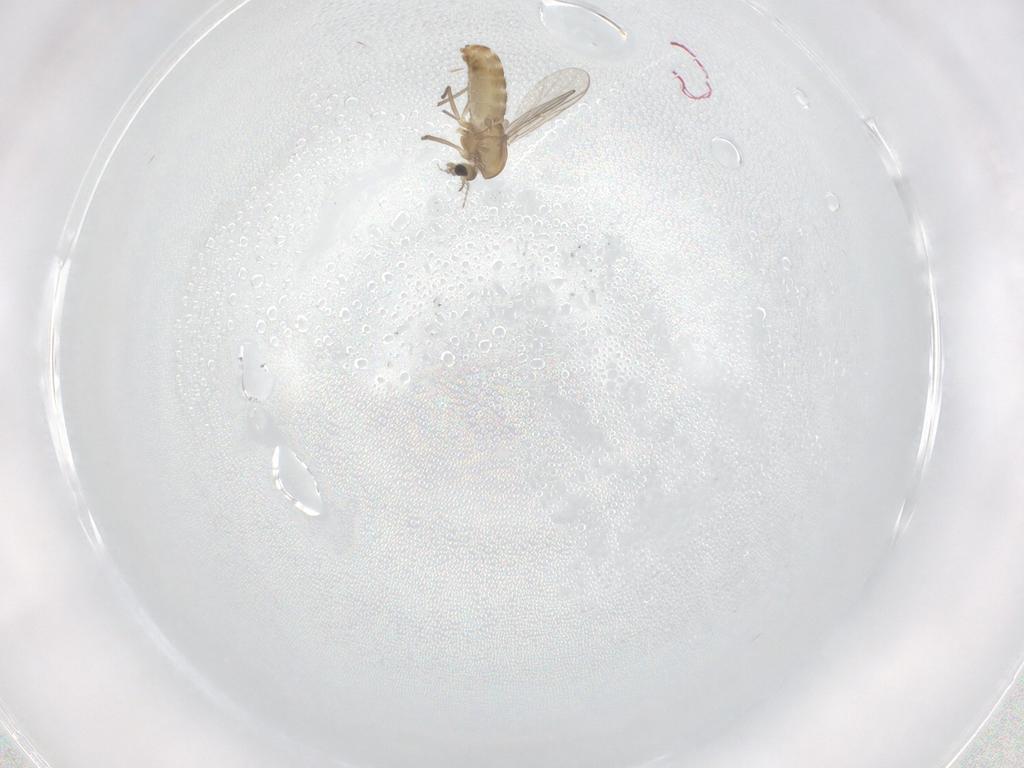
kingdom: Animalia
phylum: Arthropoda
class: Insecta
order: Diptera
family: Chironomidae
